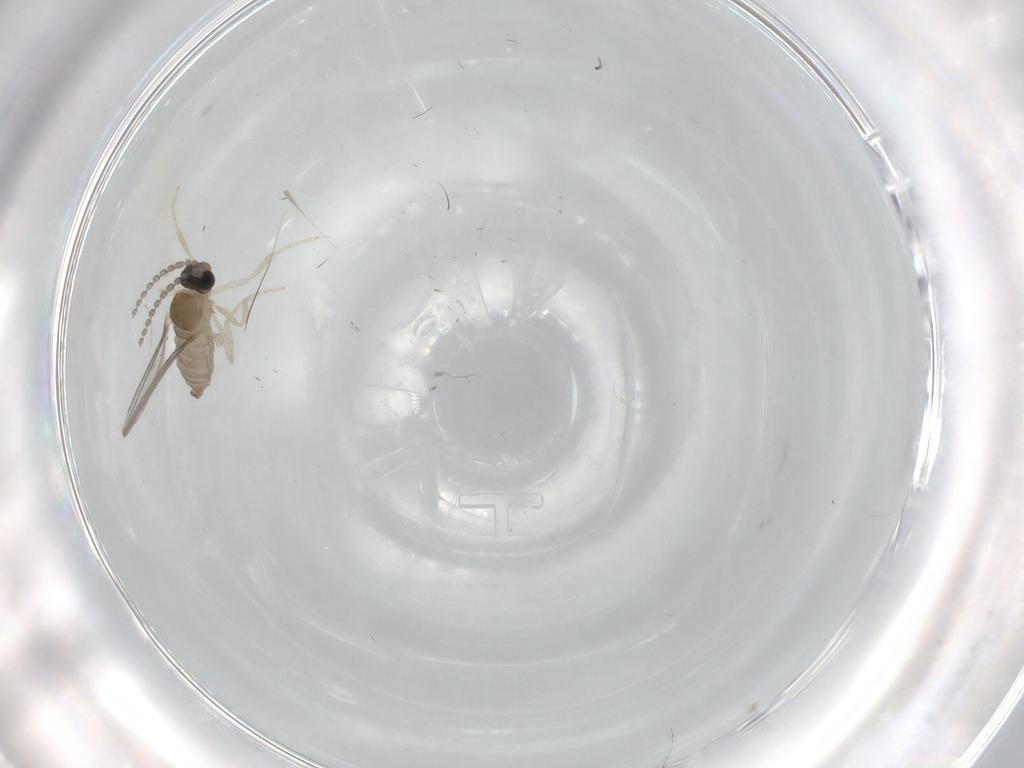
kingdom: Animalia
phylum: Arthropoda
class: Insecta
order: Diptera
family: Cecidomyiidae
